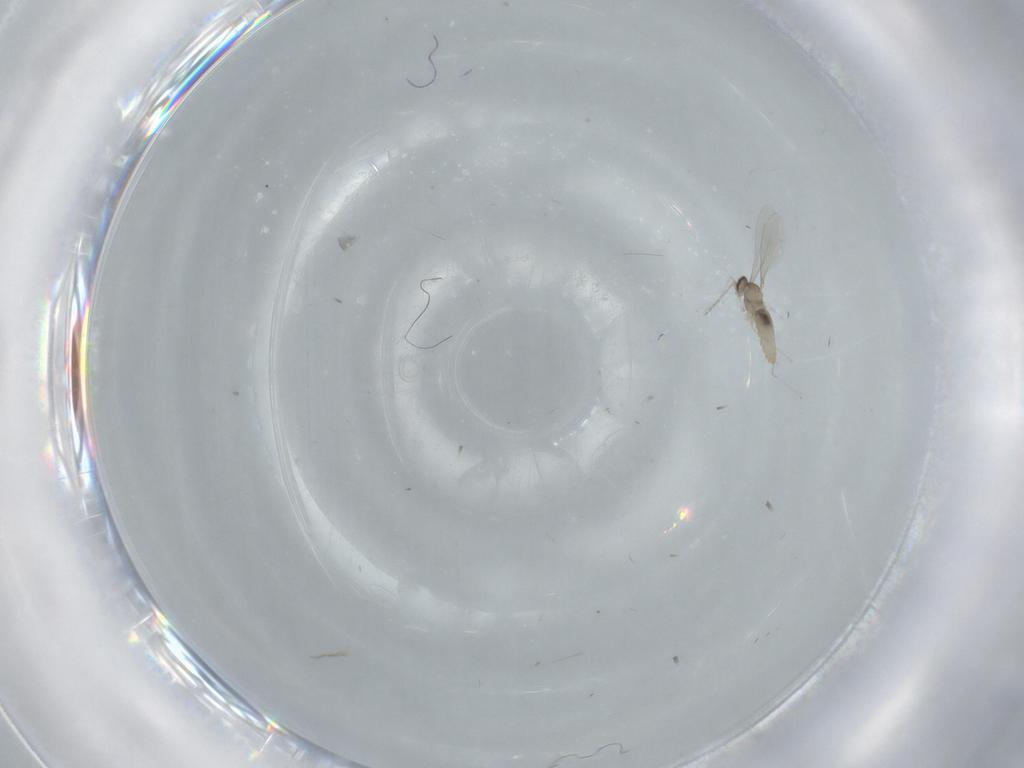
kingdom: Animalia
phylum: Arthropoda
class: Insecta
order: Diptera
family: Cecidomyiidae
